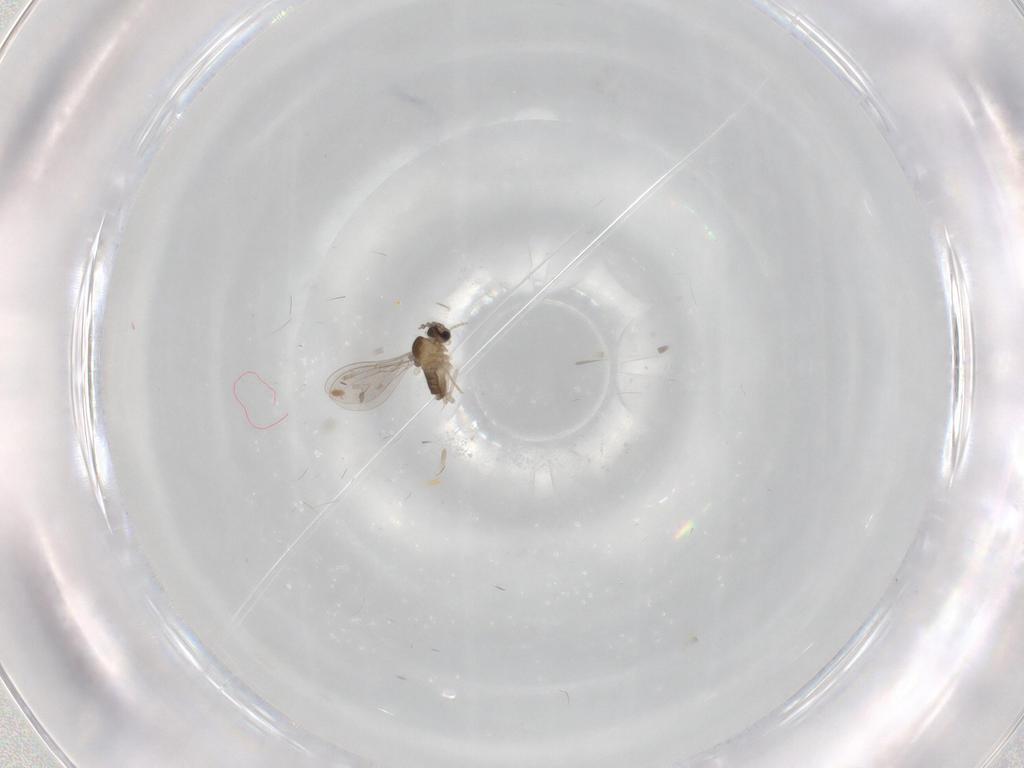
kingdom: Animalia
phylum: Arthropoda
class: Insecta
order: Diptera
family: Cecidomyiidae
